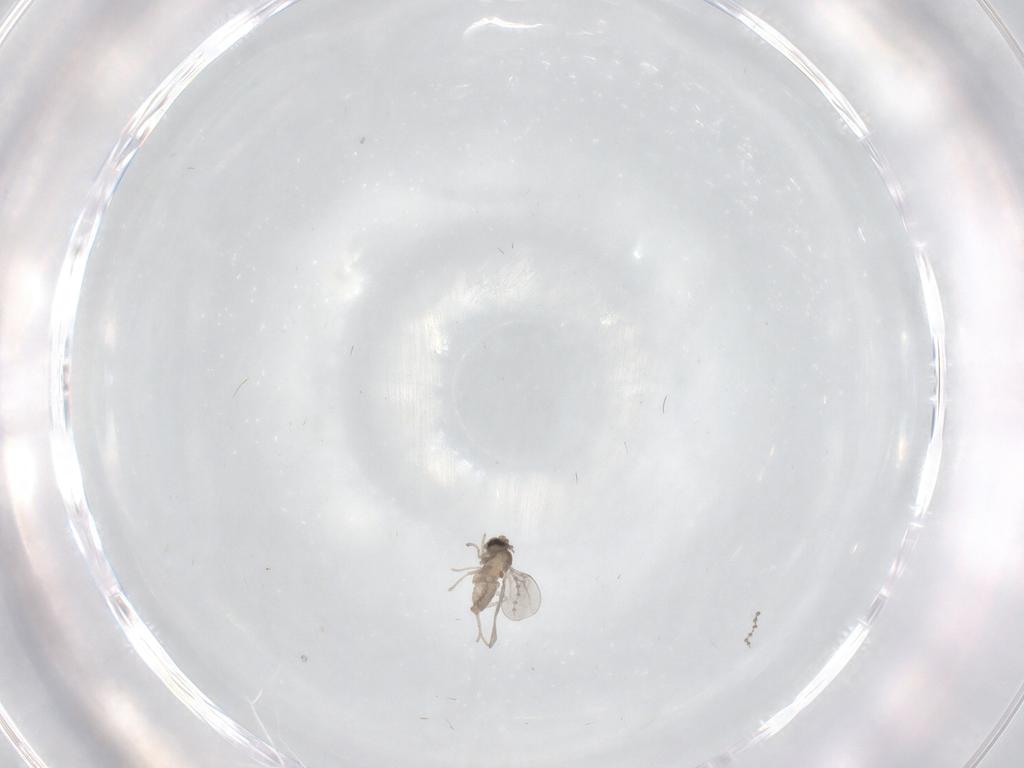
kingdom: Animalia
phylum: Arthropoda
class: Insecta
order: Diptera
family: Cecidomyiidae
